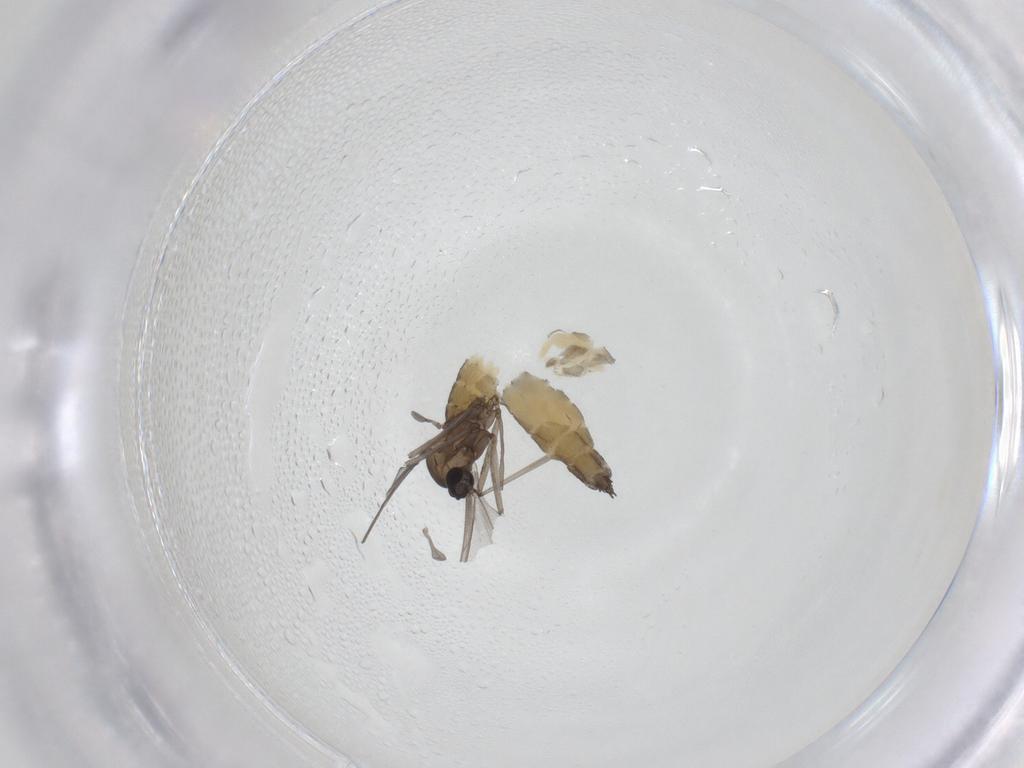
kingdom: Animalia
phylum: Arthropoda
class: Insecta
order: Diptera
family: Cecidomyiidae
